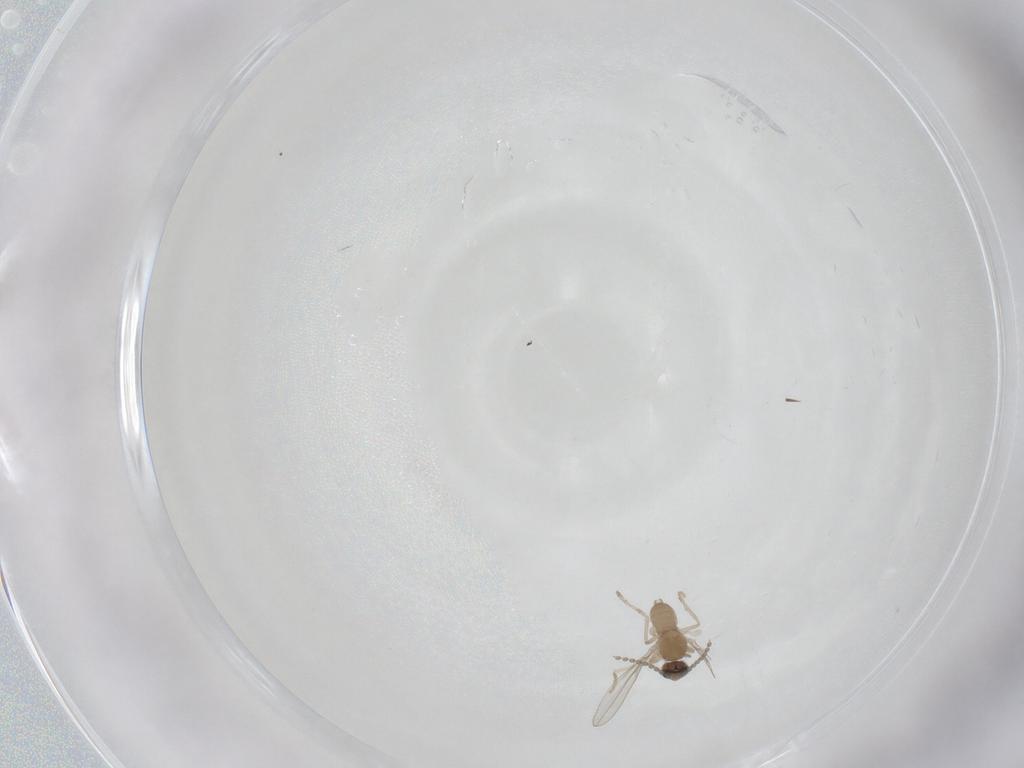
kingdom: Animalia
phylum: Arthropoda
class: Insecta
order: Diptera
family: Cecidomyiidae
